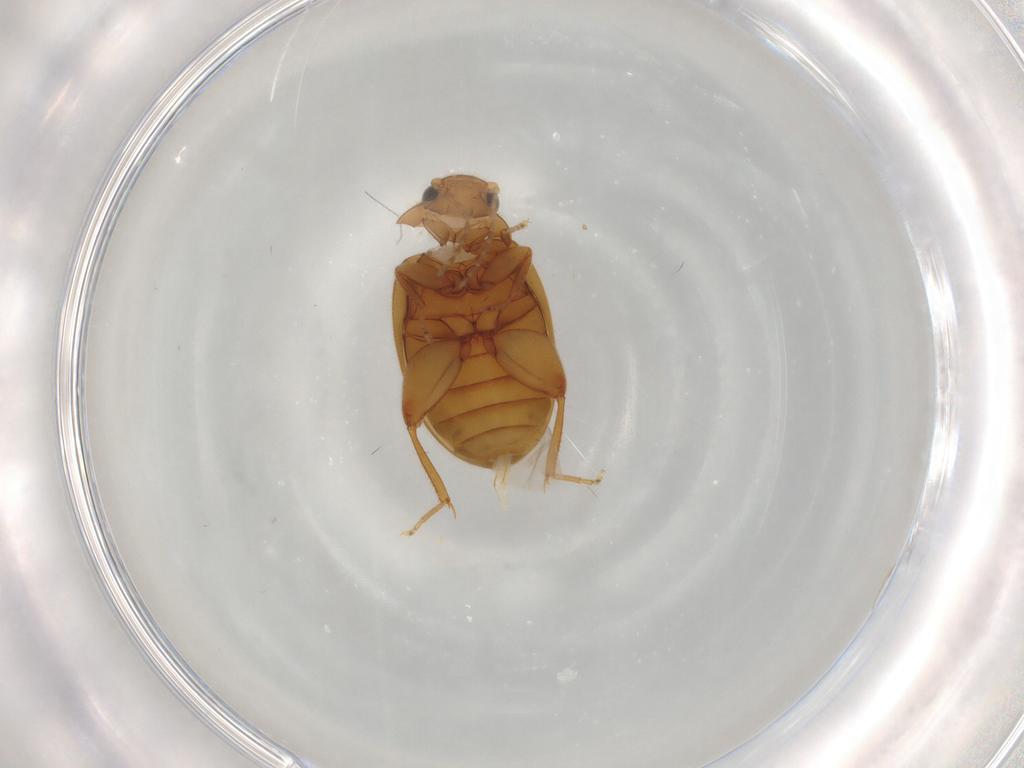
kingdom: Animalia
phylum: Arthropoda
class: Insecta
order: Coleoptera
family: Scirtidae
